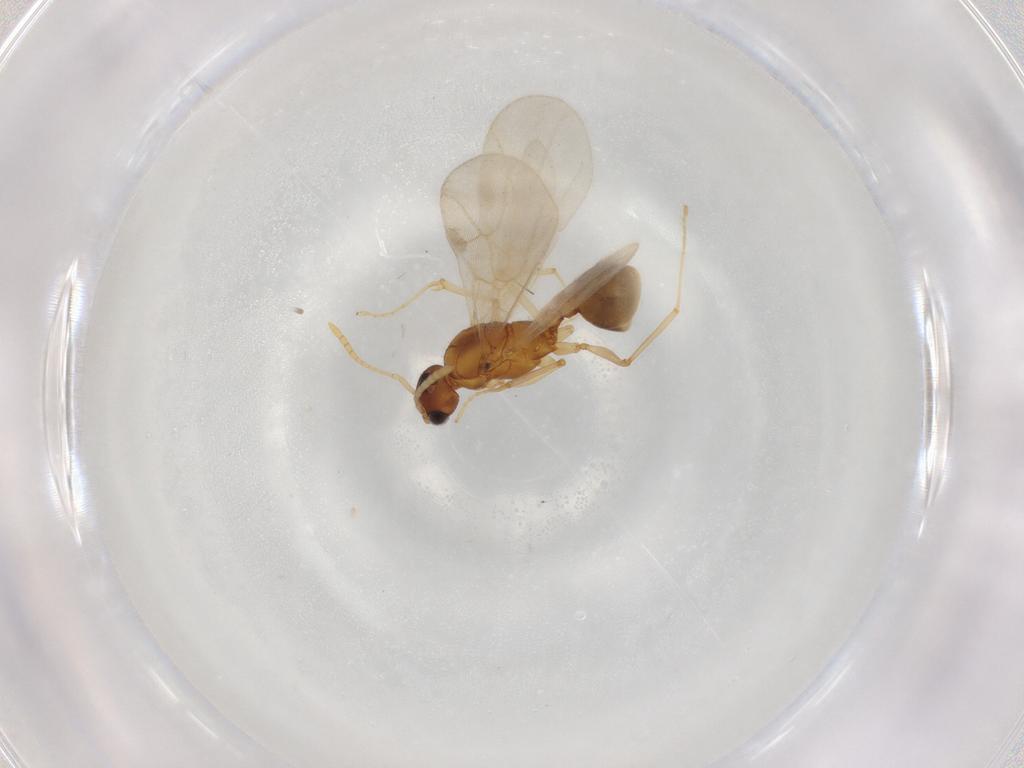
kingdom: Animalia
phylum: Arthropoda
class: Insecta
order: Hymenoptera
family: Formicidae
